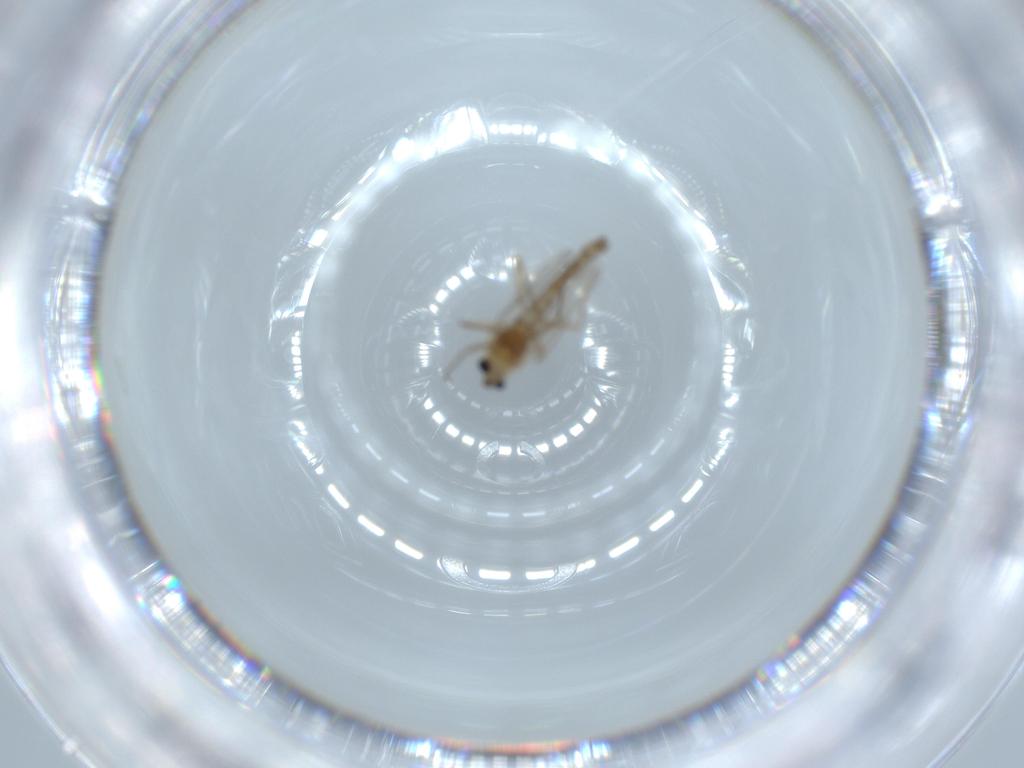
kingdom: Animalia
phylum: Arthropoda
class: Insecta
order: Diptera
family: Chironomidae
